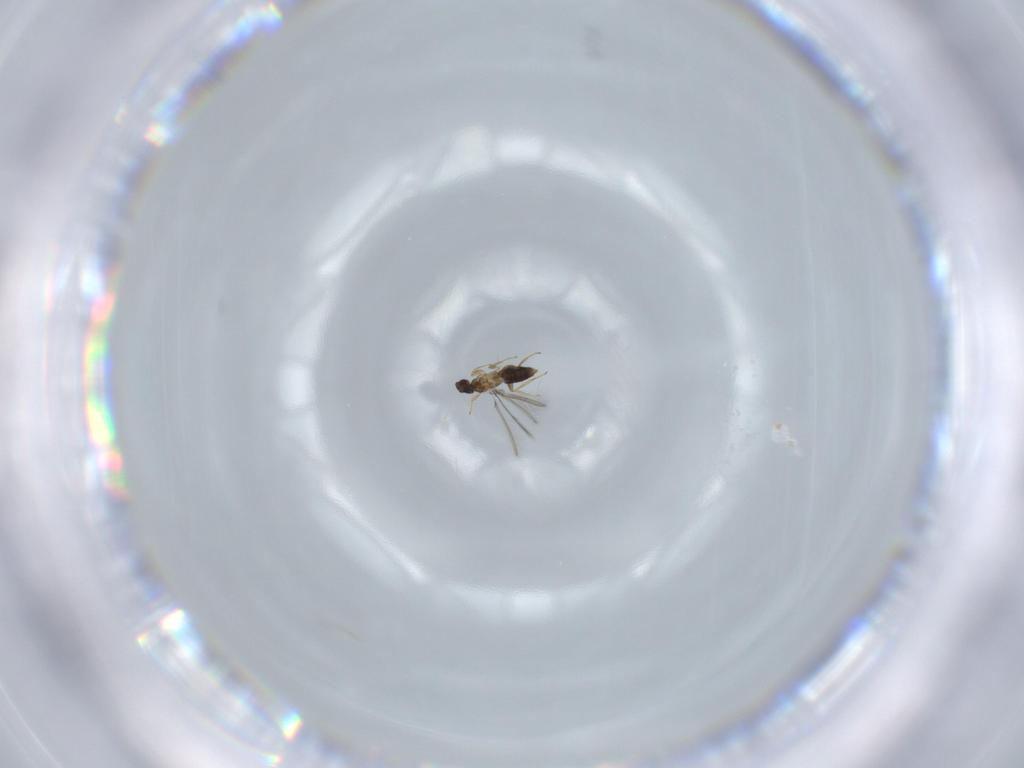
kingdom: Animalia
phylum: Arthropoda
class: Insecta
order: Hymenoptera
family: Mymaridae
